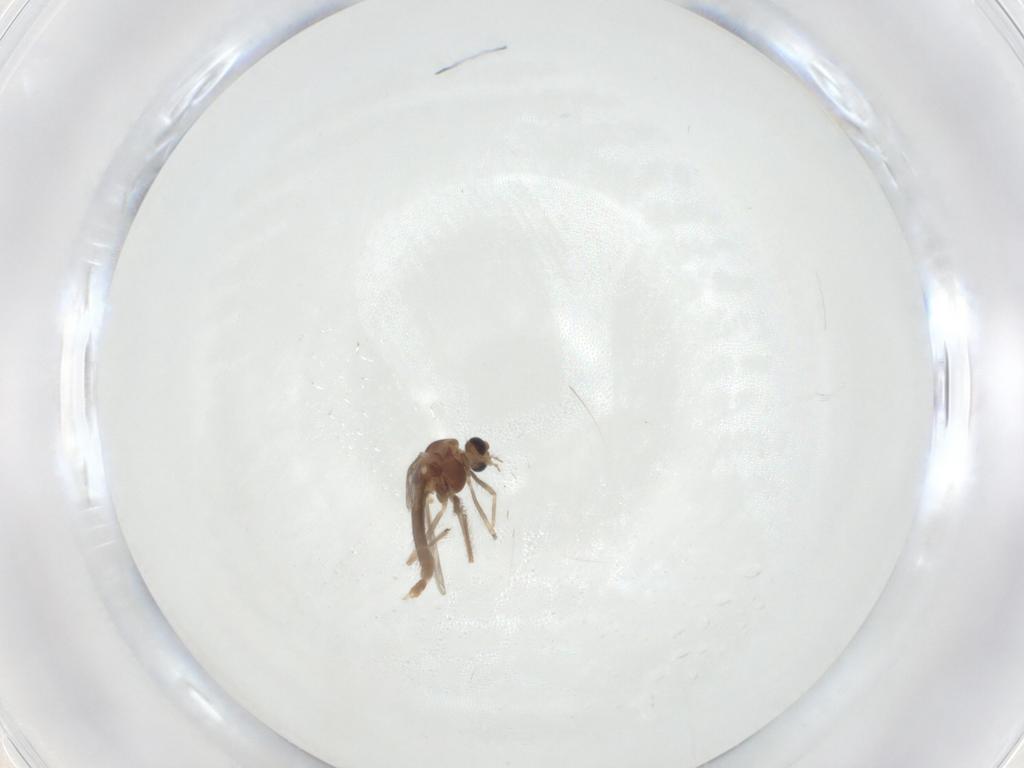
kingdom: Animalia
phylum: Arthropoda
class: Insecta
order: Diptera
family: Chironomidae
